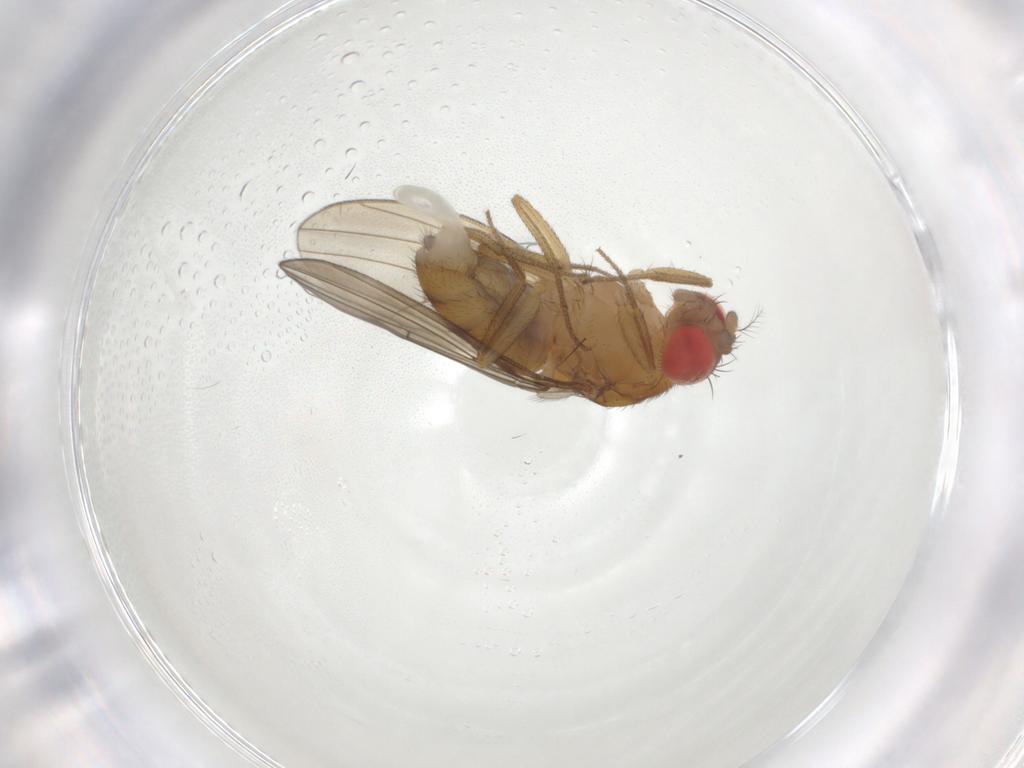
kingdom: Animalia
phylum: Arthropoda
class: Insecta
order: Diptera
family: Drosophilidae
